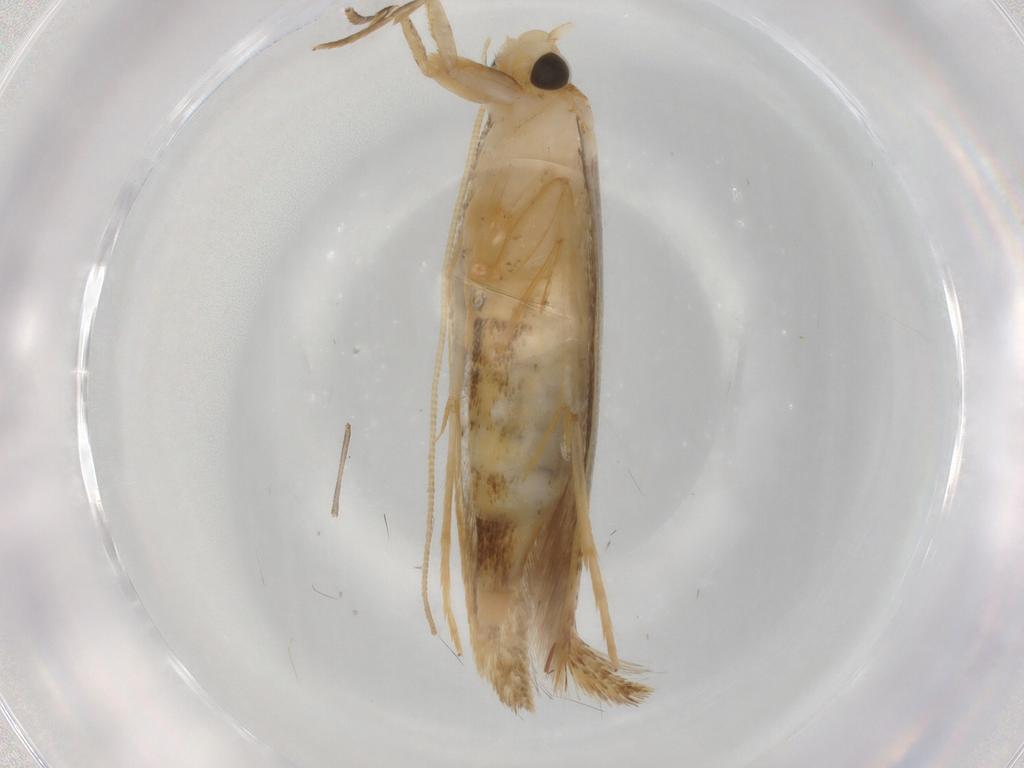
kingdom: Animalia
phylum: Arthropoda
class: Insecta
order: Lepidoptera
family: Tineidae
